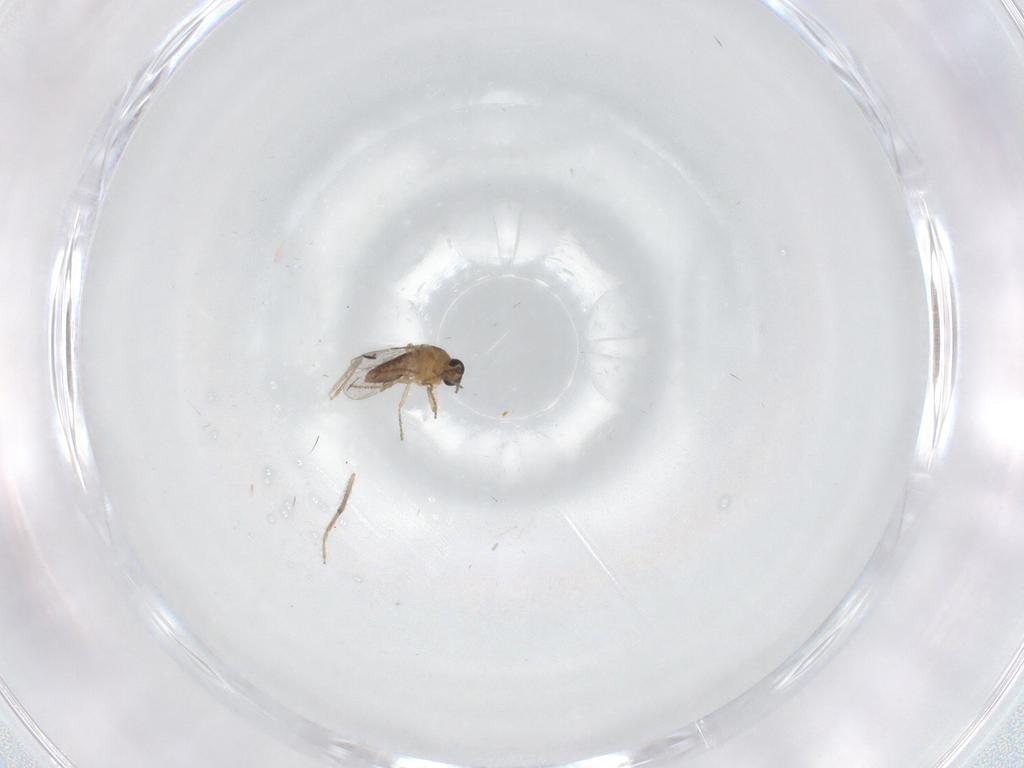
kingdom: Animalia
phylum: Arthropoda
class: Insecta
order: Diptera
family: Ceratopogonidae
